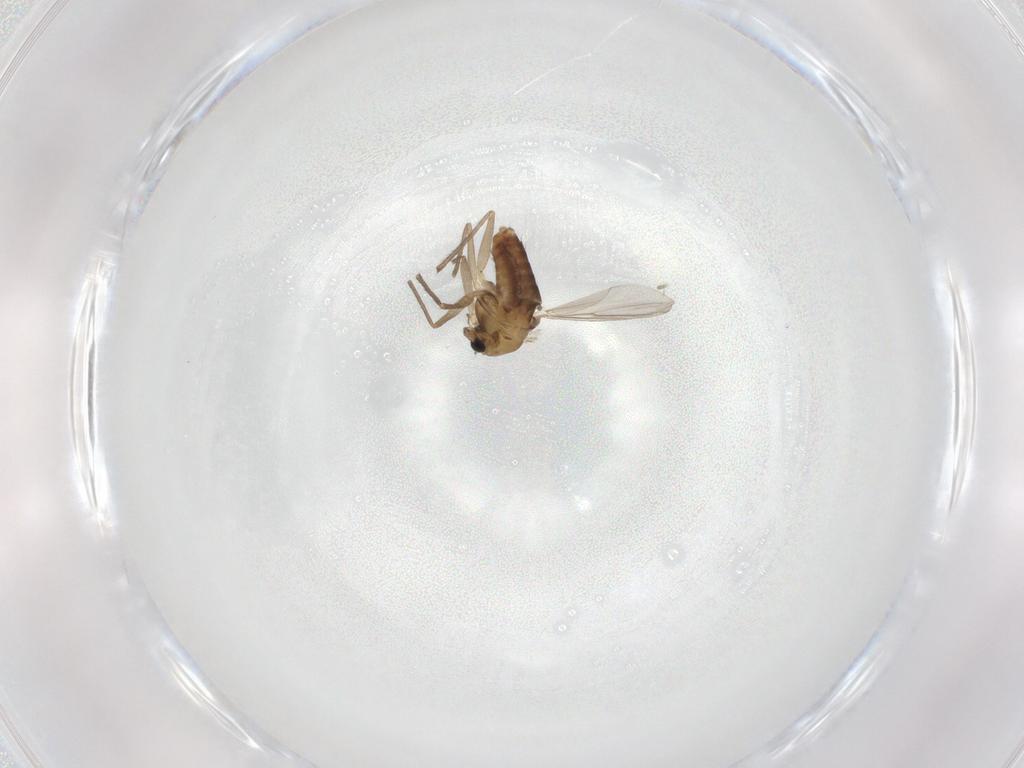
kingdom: Animalia
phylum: Arthropoda
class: Insecta
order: Diptera
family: Chironomidae
